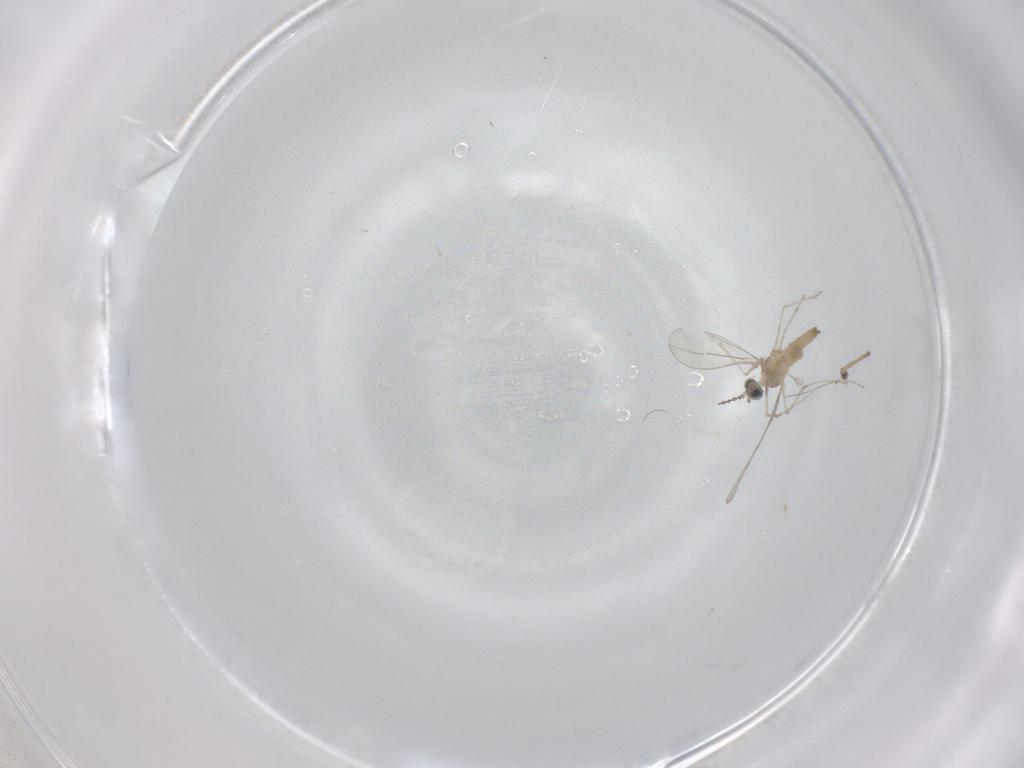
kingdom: Animalia
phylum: Arthropoda
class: Insecta
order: Diptera
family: Cecidomyiidae
